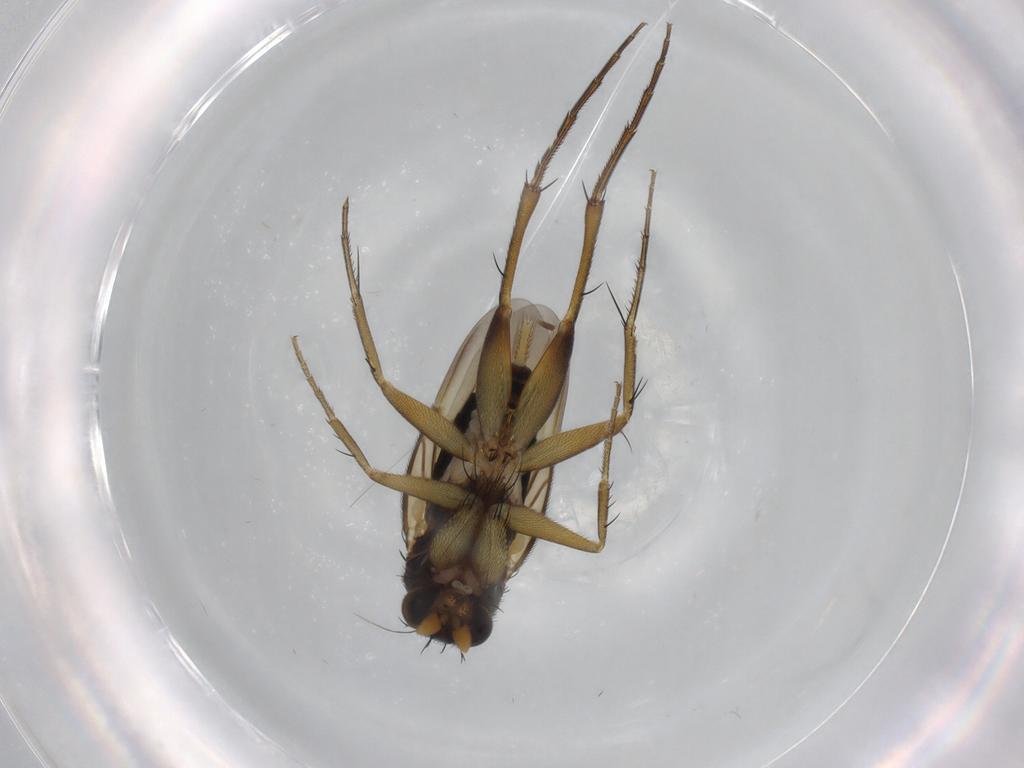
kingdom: Animalia
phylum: Arthropoda
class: Insecta
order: Diptera
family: Phoridae
